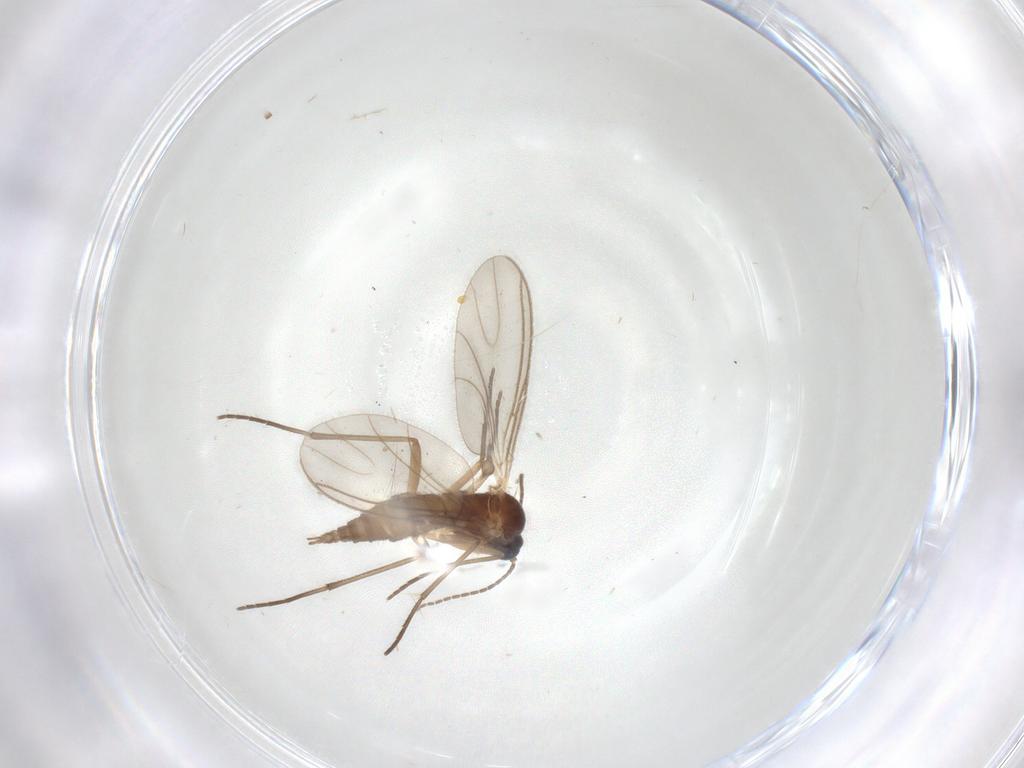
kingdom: Animalia
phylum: Arthropoda
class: Insecta
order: Diptera
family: Sciaridae
